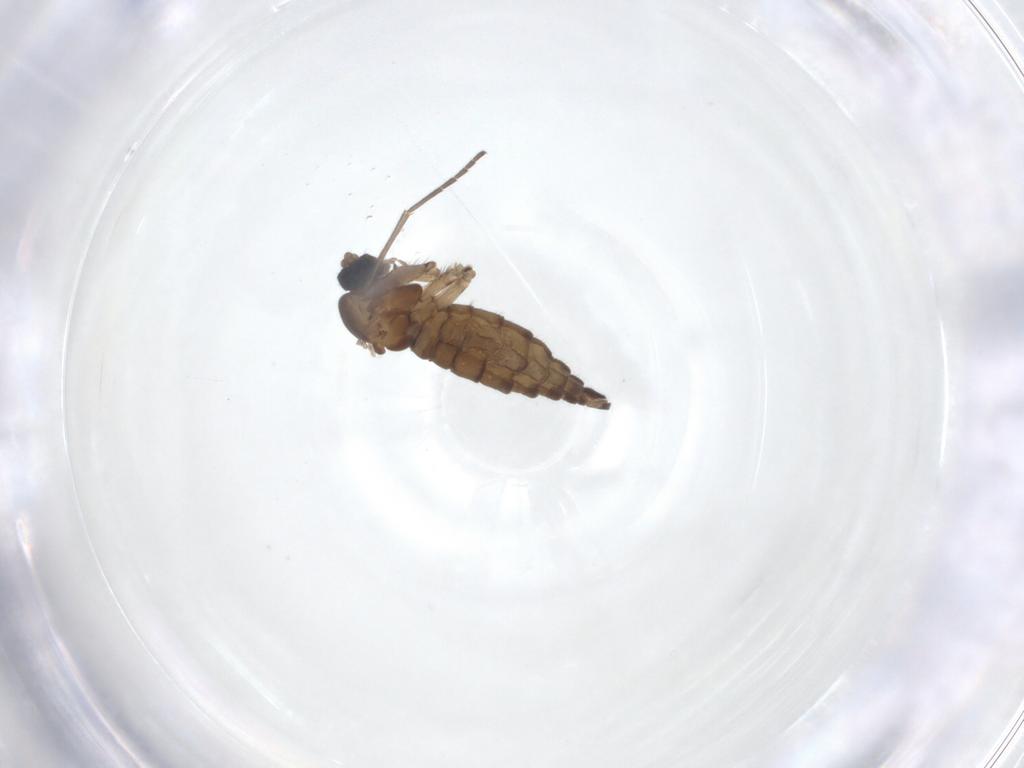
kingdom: Animalia
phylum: Arthropoda
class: Insecta
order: Diptera
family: Sciaridae
